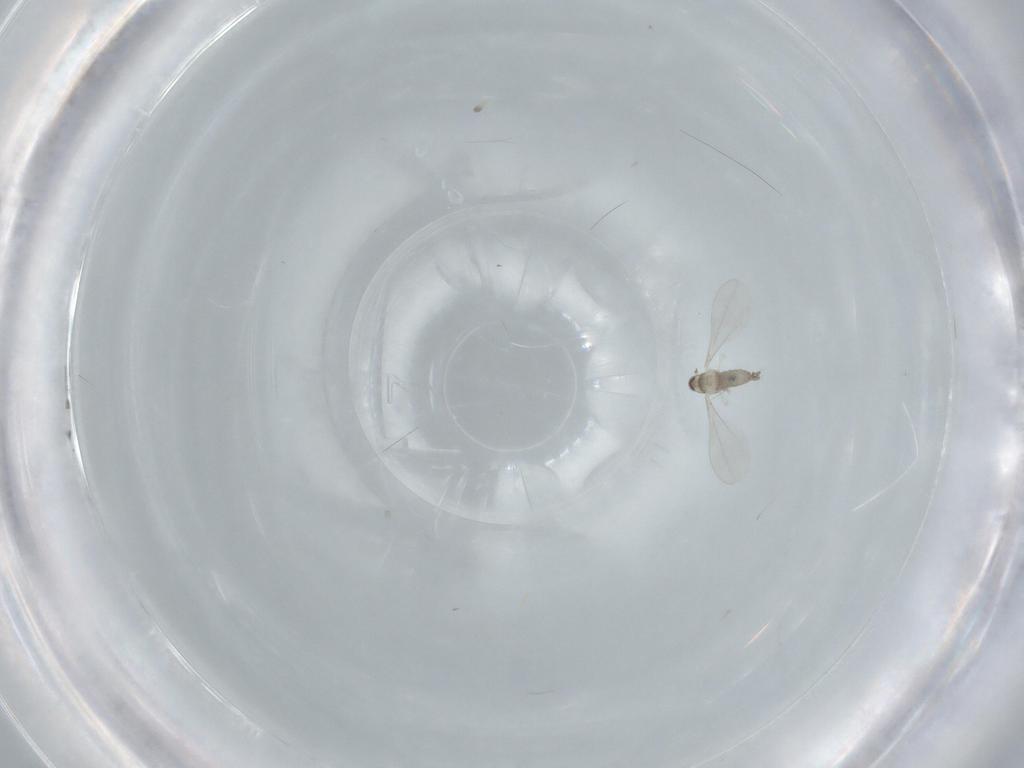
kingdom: Animalia
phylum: Arthropoda
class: Insecta
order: Diptera
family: Cecidomyiidae
